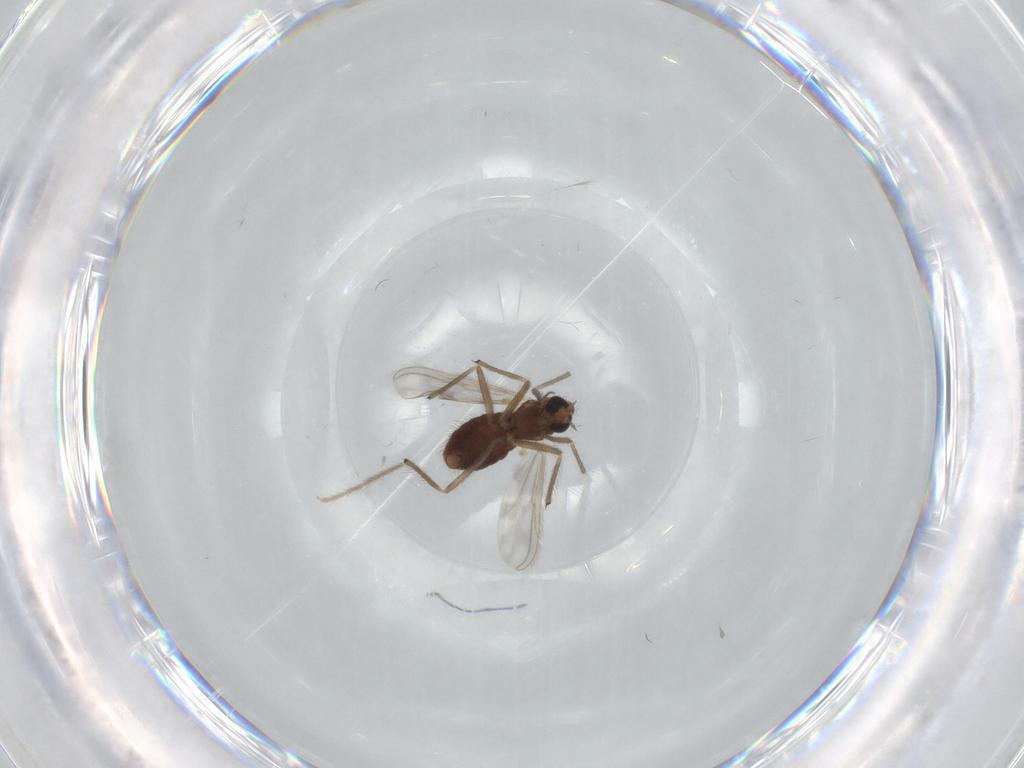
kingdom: Animalia
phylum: Arthropoda
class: Insecta
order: Diptera
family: Chironomidae
